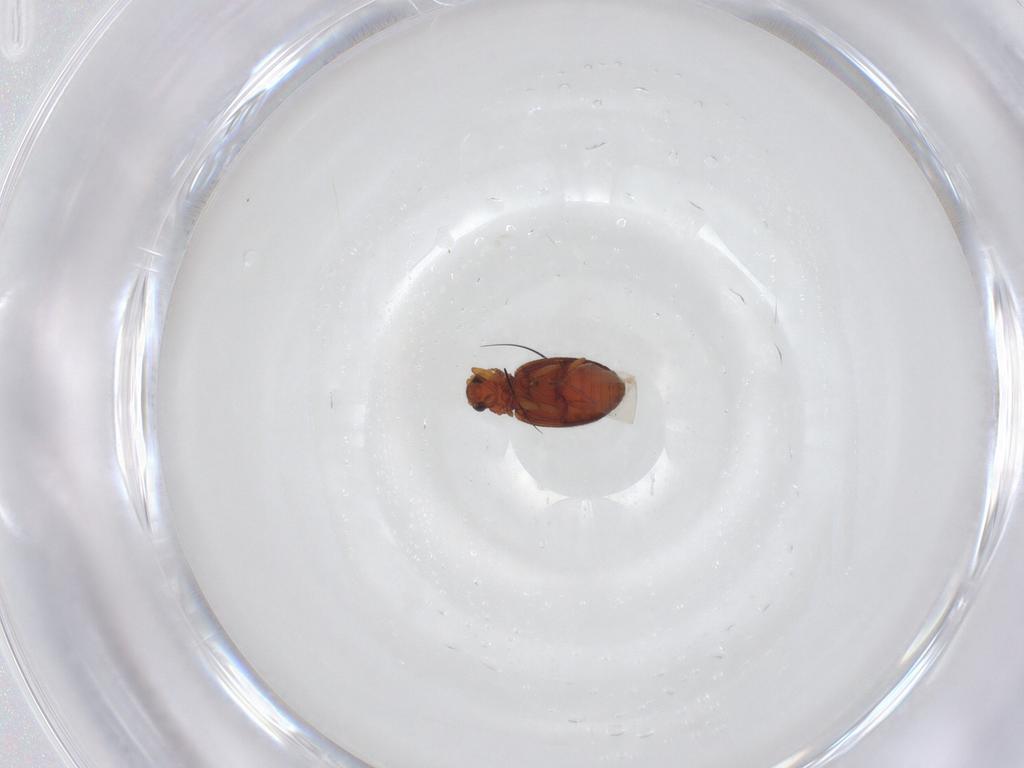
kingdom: Animalia
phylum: Arthropoda
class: Insecta
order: Coleoptera
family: Latridiidae
